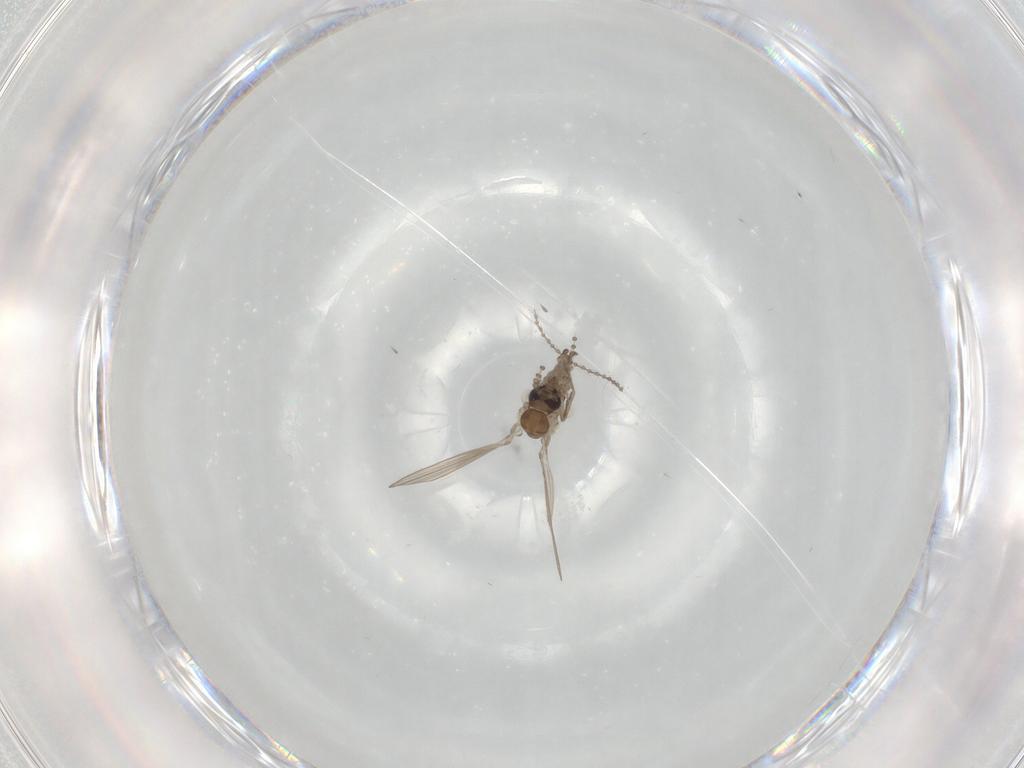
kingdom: Animalia
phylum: Arthropoda
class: Insecta
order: Diptera
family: Psychodidae
